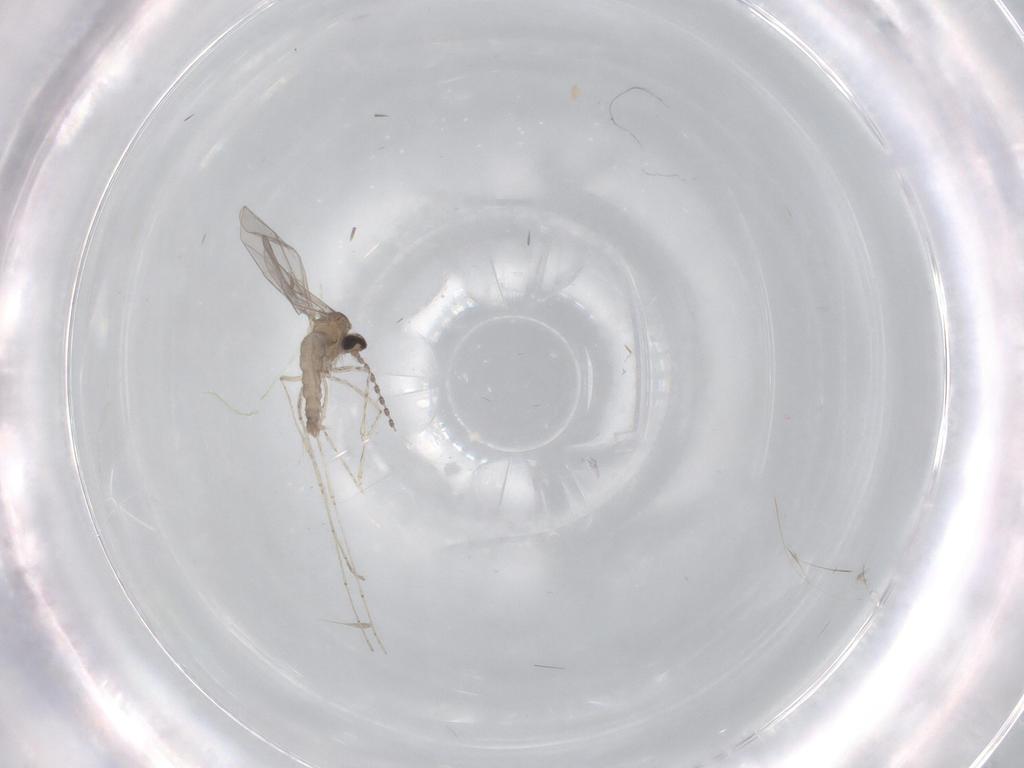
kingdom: Animalia
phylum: Arthropoda
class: Insecta
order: Diptera
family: Cecidomyiidae
